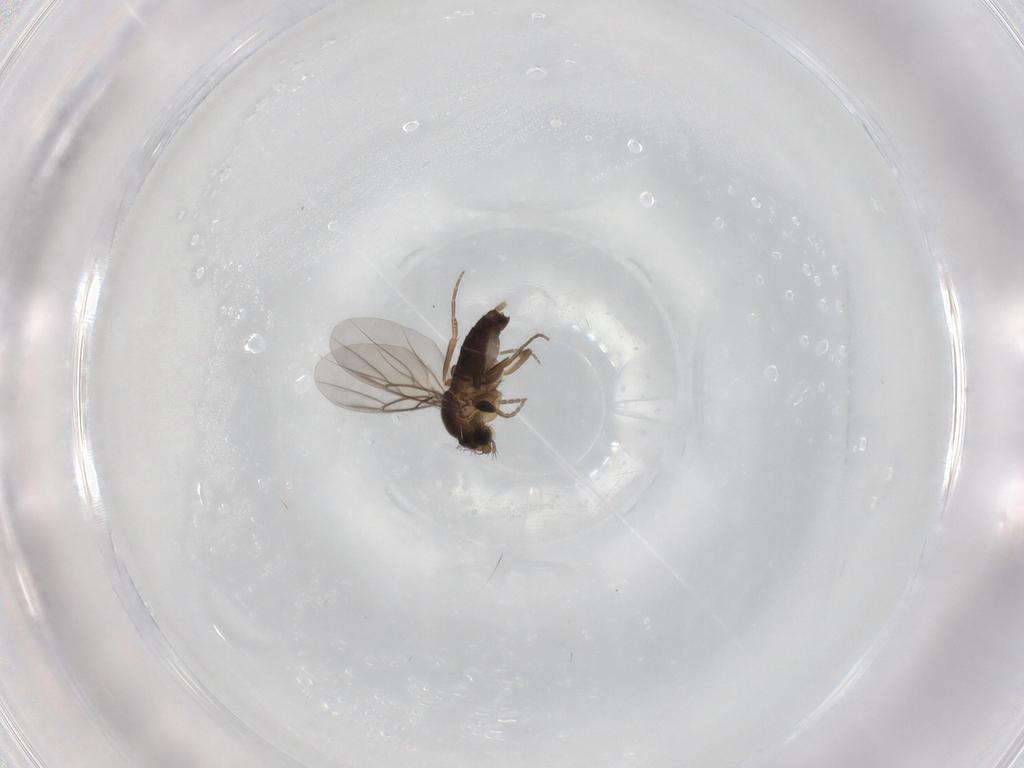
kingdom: Animalia
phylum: Arthropoda
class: Insecta
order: Diptera
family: Phoridae
